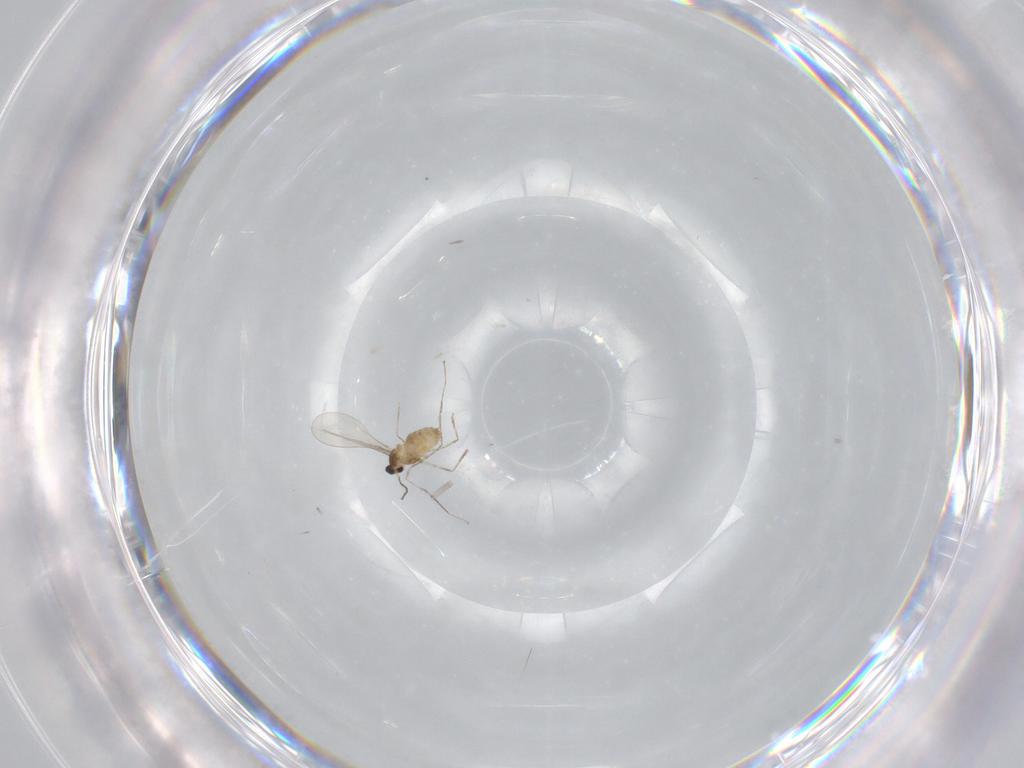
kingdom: Animalia
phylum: Arthropoda
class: Insecta
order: Diptera
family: Cecidomyiidae
